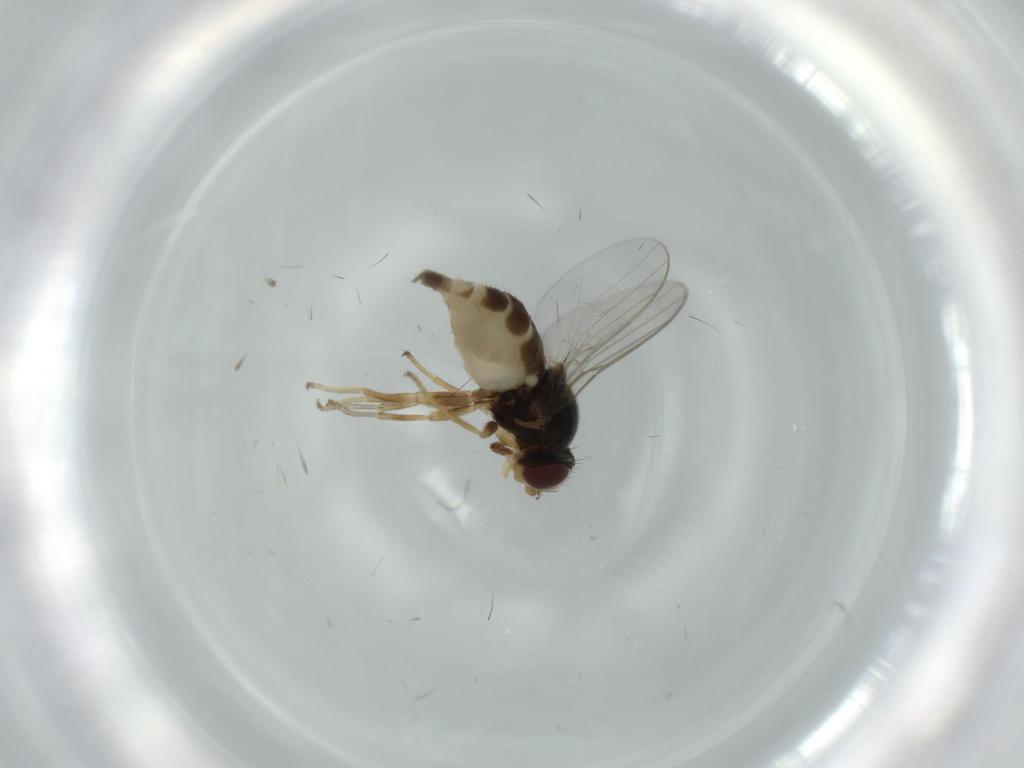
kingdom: Animalia
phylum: Arthropoda
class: Insecta
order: Diptera
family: Chloropidae
